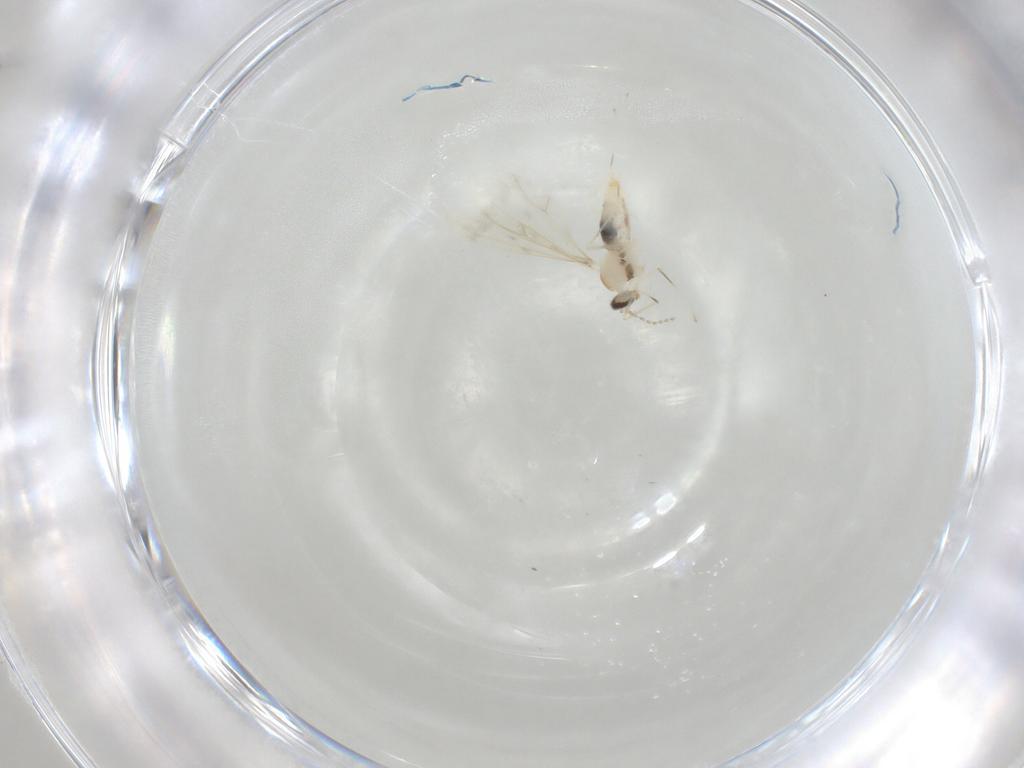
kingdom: Animalia
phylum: Arthropoda
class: Insecta
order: Diptera
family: Cecidomyiidae
